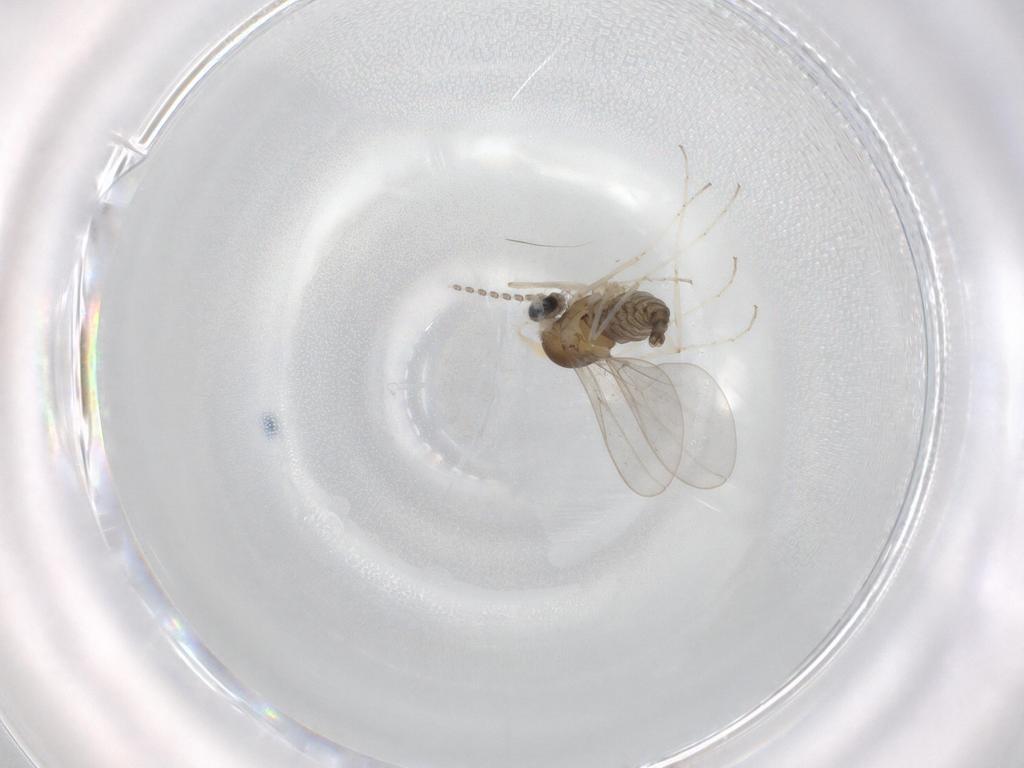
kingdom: Animalia
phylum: Arthropoda
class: Insecta
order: Diptera
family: Cecidomyiidae
